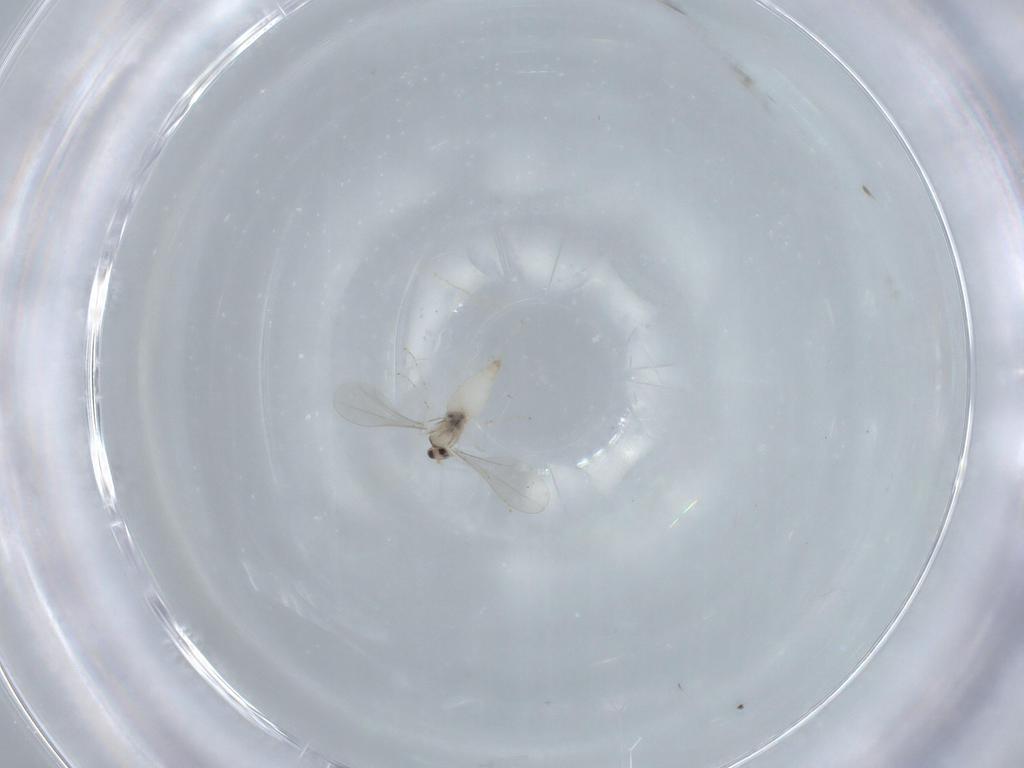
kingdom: Animalia
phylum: Arthropoda
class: Insecta
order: Diptera
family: Cecidomyiidae
